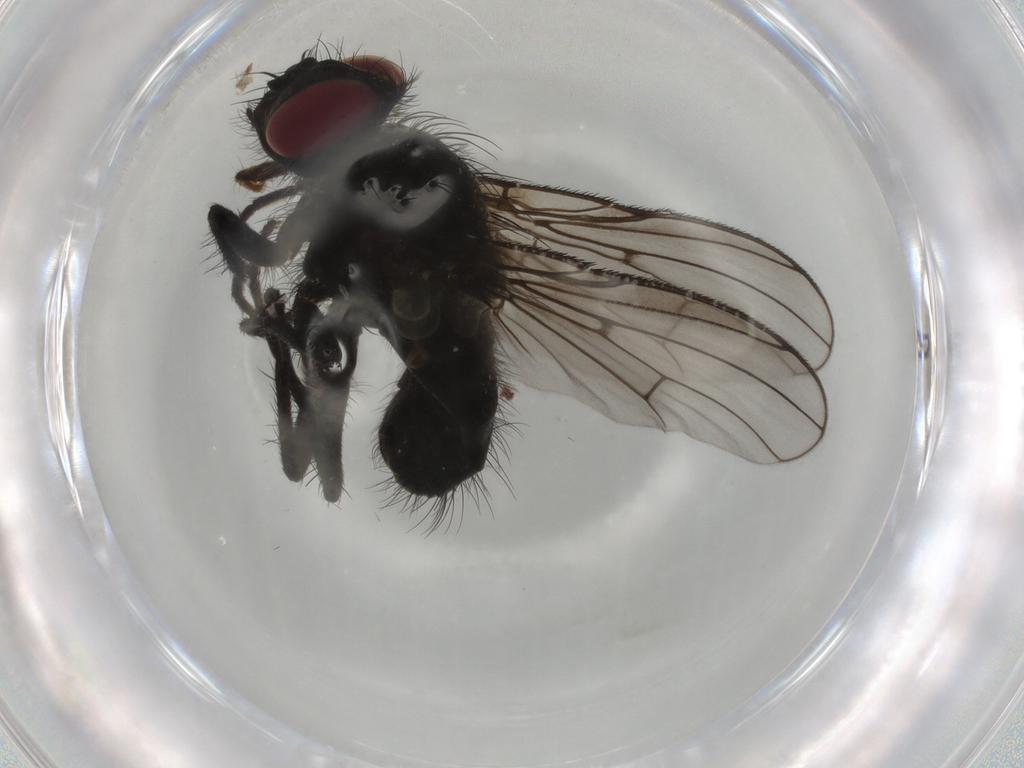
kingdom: Animalia
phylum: Arthropoda
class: Insecta
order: Diptera
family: Muscidae
